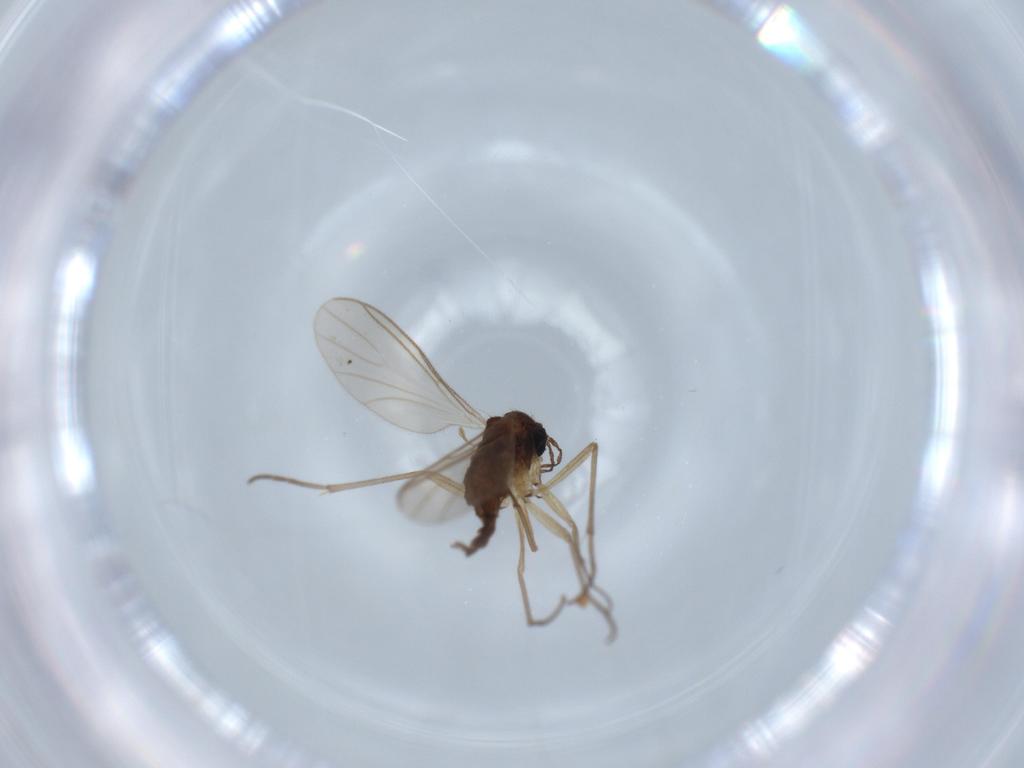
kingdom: Animalia
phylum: Arthropoda
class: Insecta
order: Diptera
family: Sciaridae
